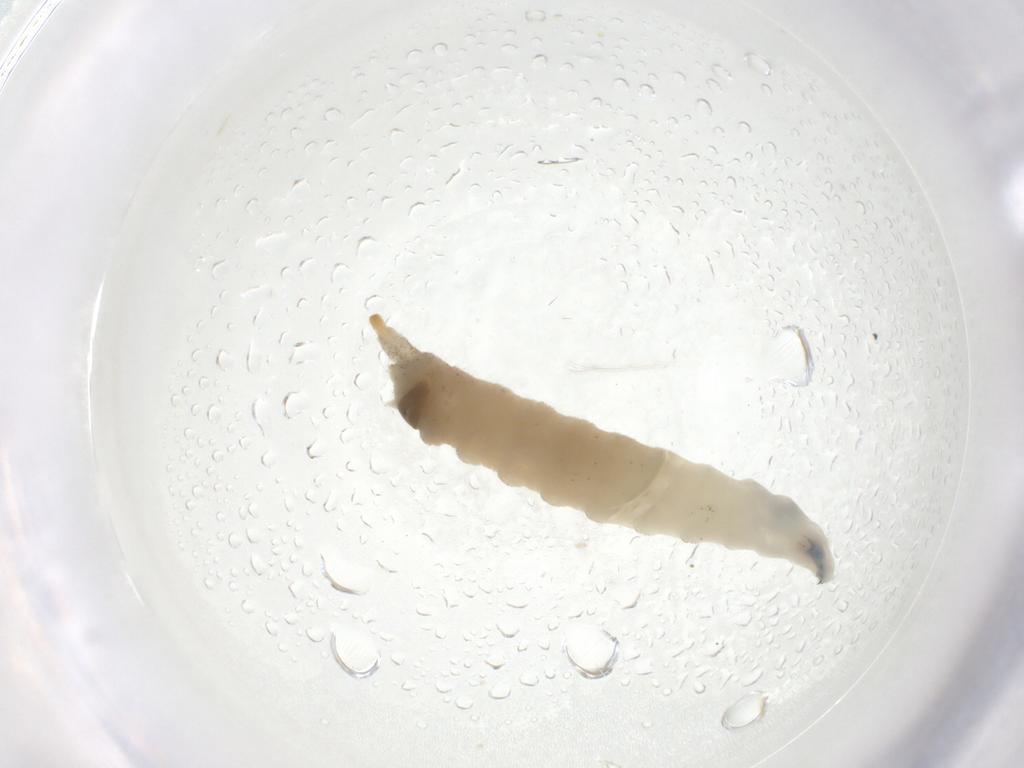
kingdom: Animalia
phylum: Arthropoda
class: Insecta
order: Diptera
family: Drosophilidae
